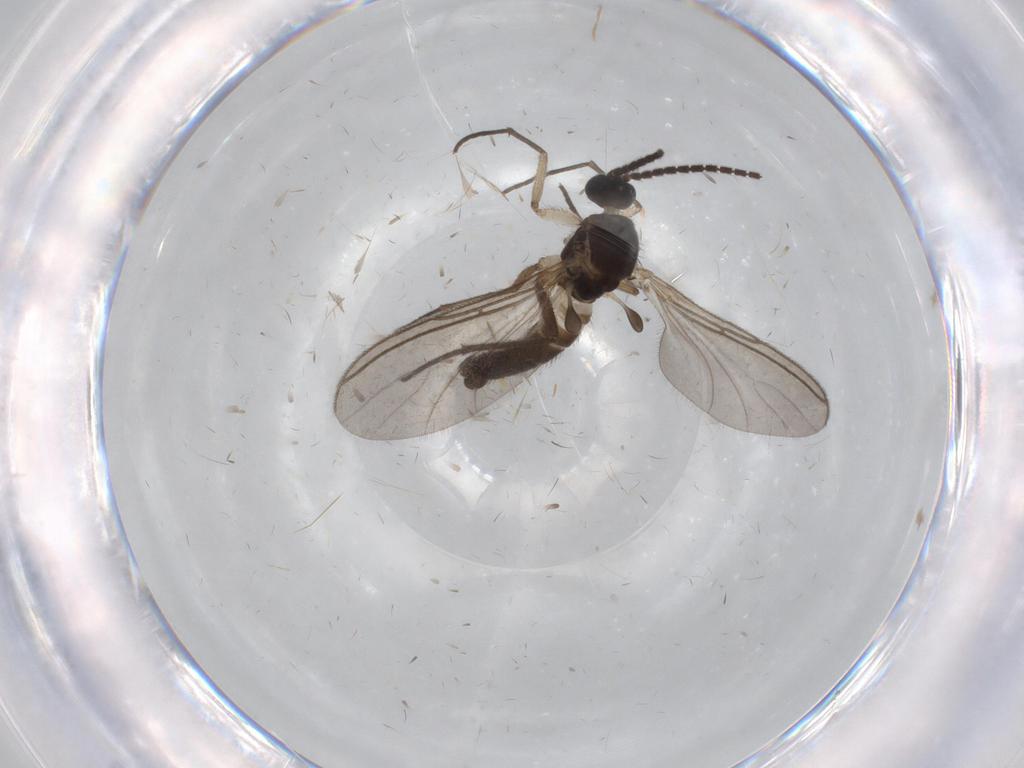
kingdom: Animalia
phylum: Arthropoda
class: Insecta
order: Diptera
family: Sciaridae
